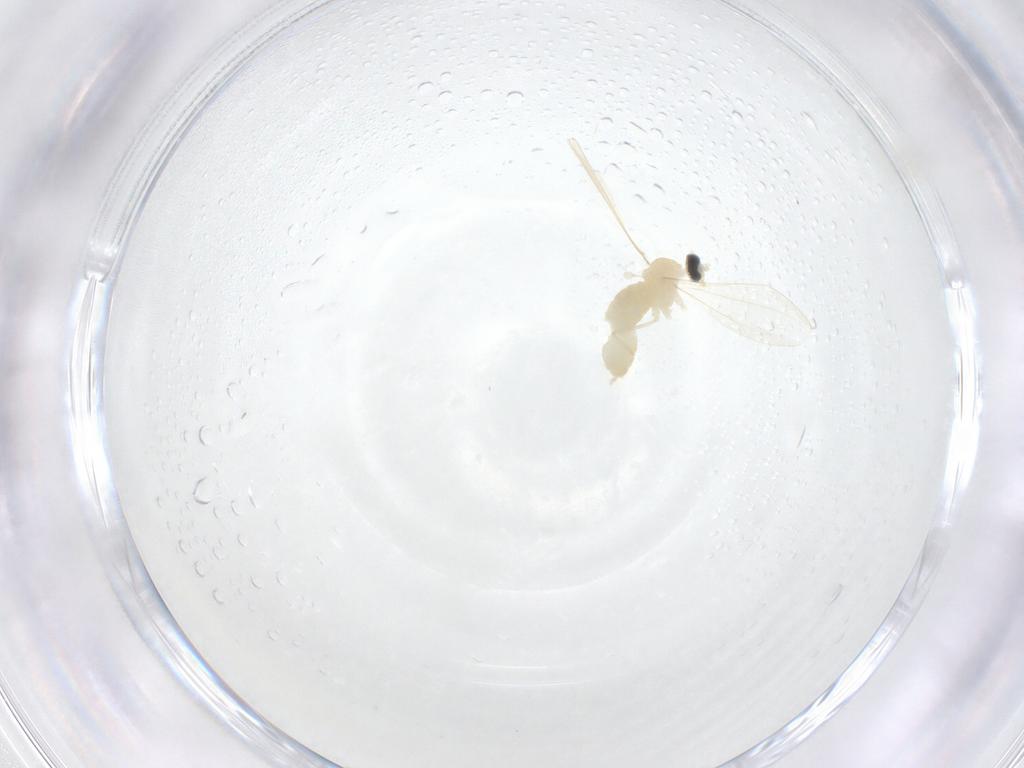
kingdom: Animalia
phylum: Arthropoda
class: Insecta
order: Diptera
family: Cecidomyiidae
